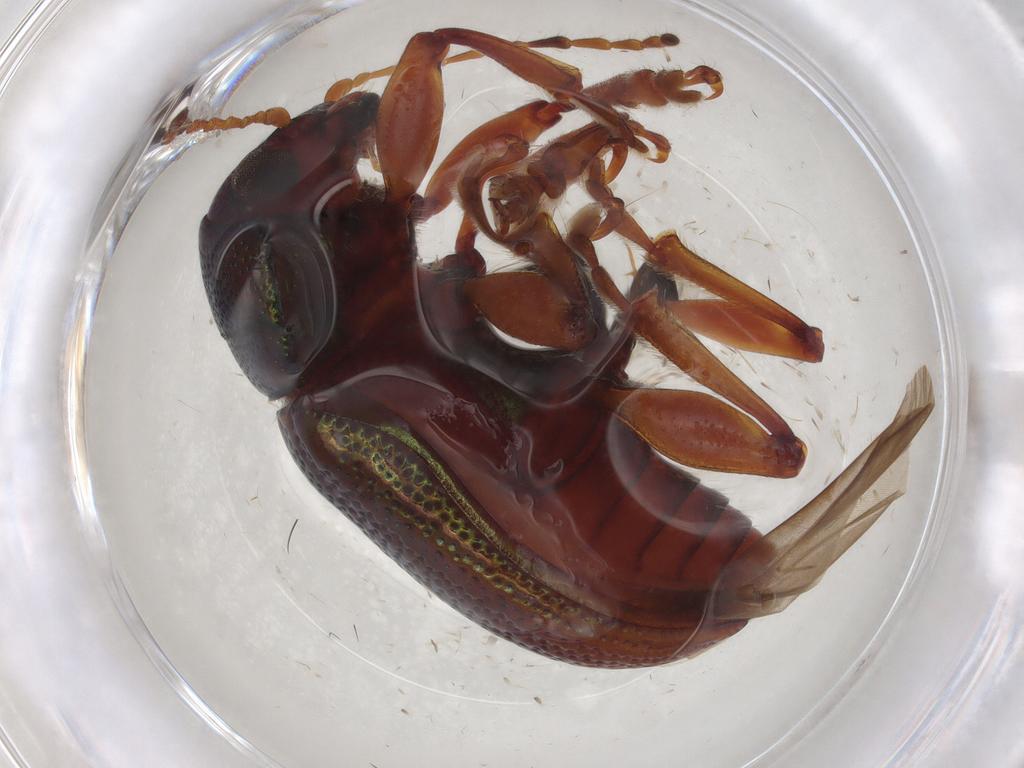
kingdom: Animalia
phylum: Arthropoda
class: Insecta
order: Coleoptera
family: Chrysomelidae
